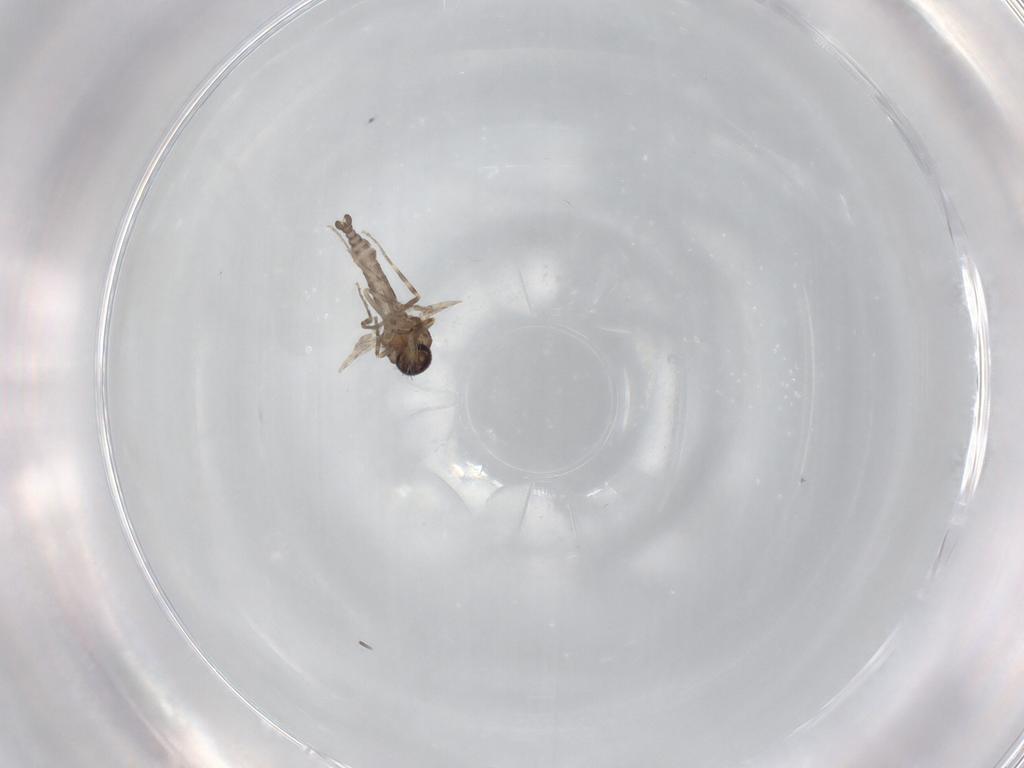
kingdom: Animalia
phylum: Arthropoda
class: Insecta
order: Diptera
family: Ceratopogonidae
